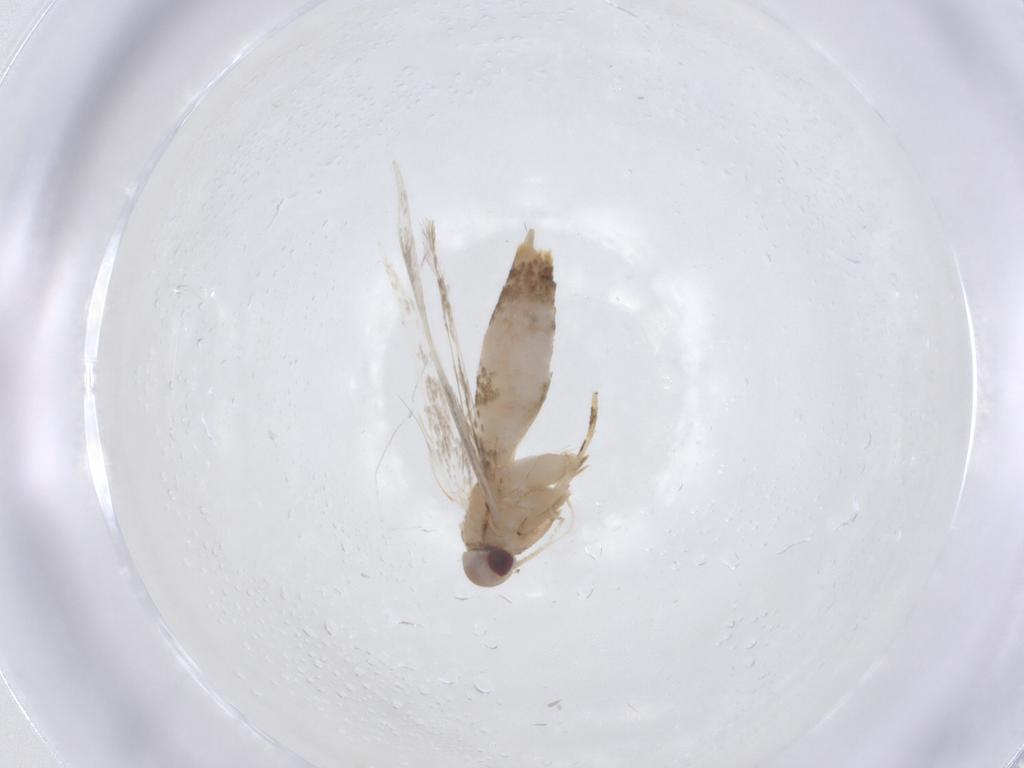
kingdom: Animalia
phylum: Arthropoda
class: Insecta
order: Lepidoptera
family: Cosmopterigidae
